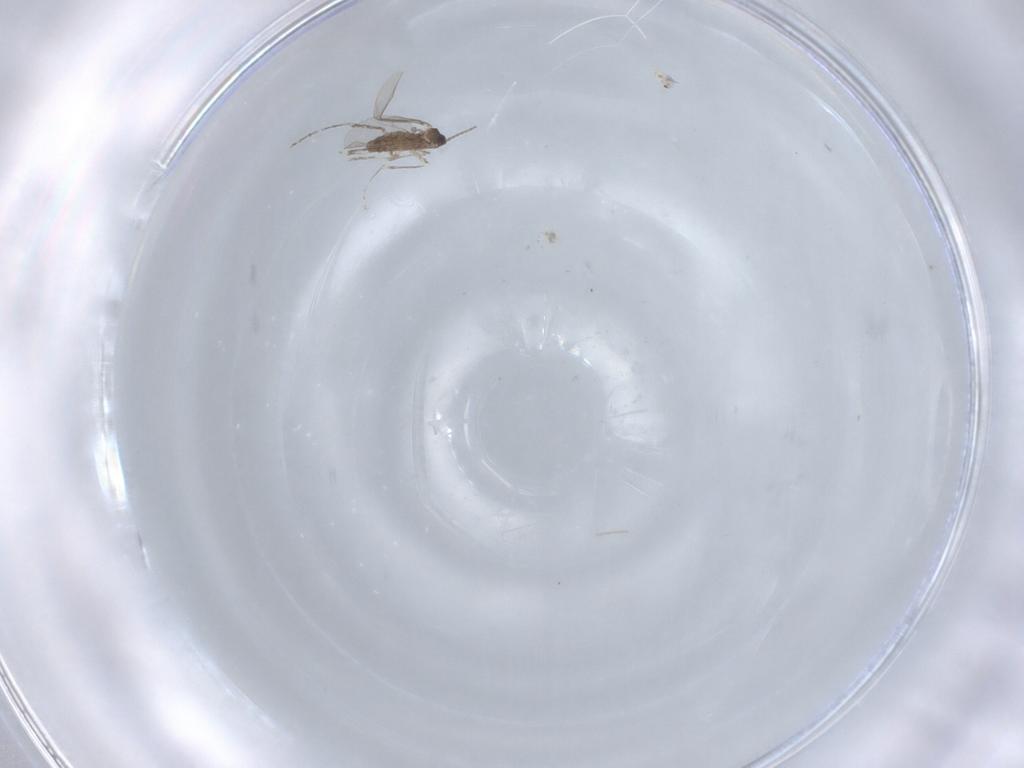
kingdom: Animalia
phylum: Arthropoda
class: Insecta
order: Diptera
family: Cecidomyiidae
